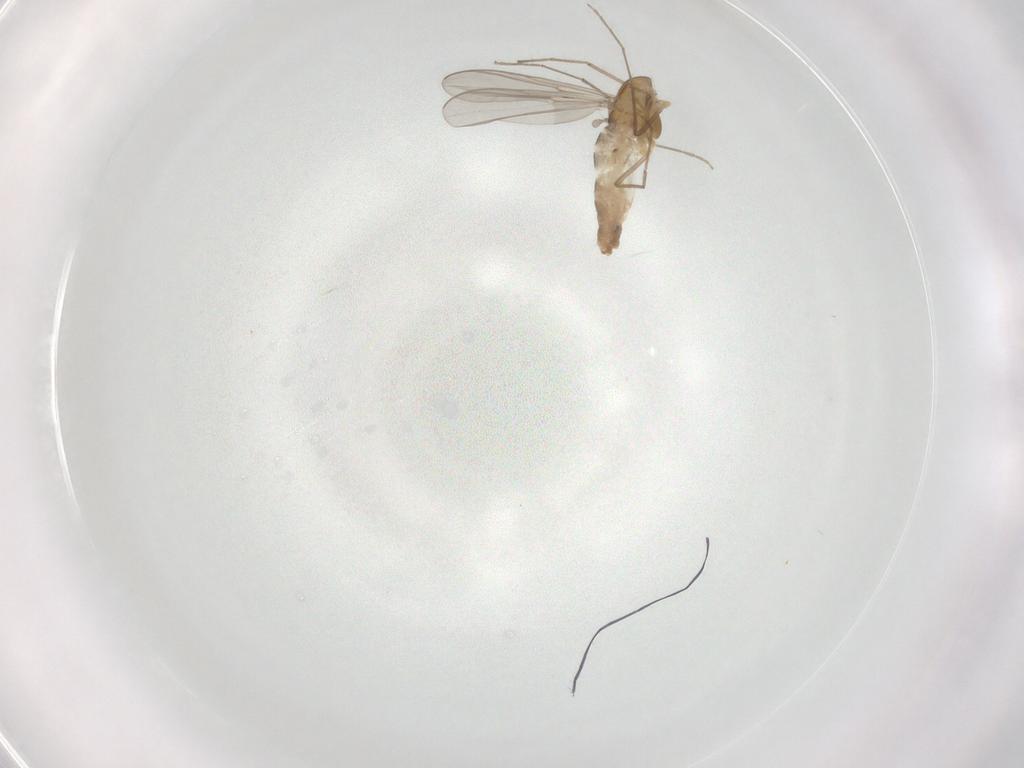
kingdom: Animalia
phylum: Arthropoda
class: Insecta
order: Diptera
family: Chironomidae
